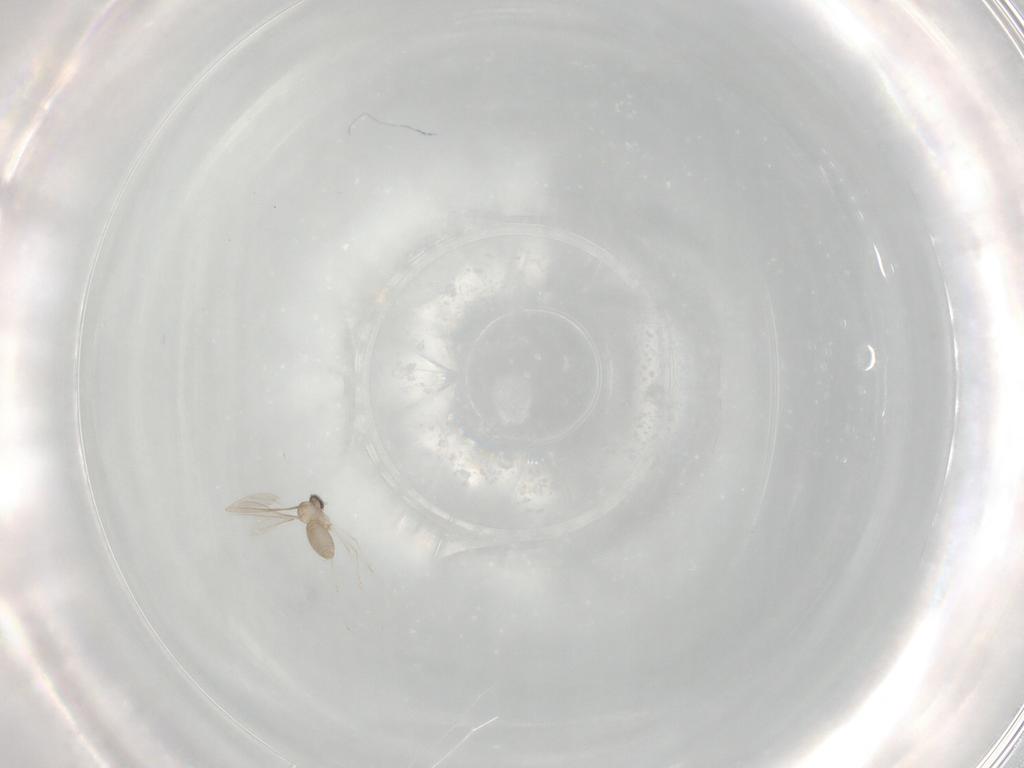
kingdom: Animalia
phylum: Arthropoda
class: Insecta
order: Diptera
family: Cecidomyiidae
